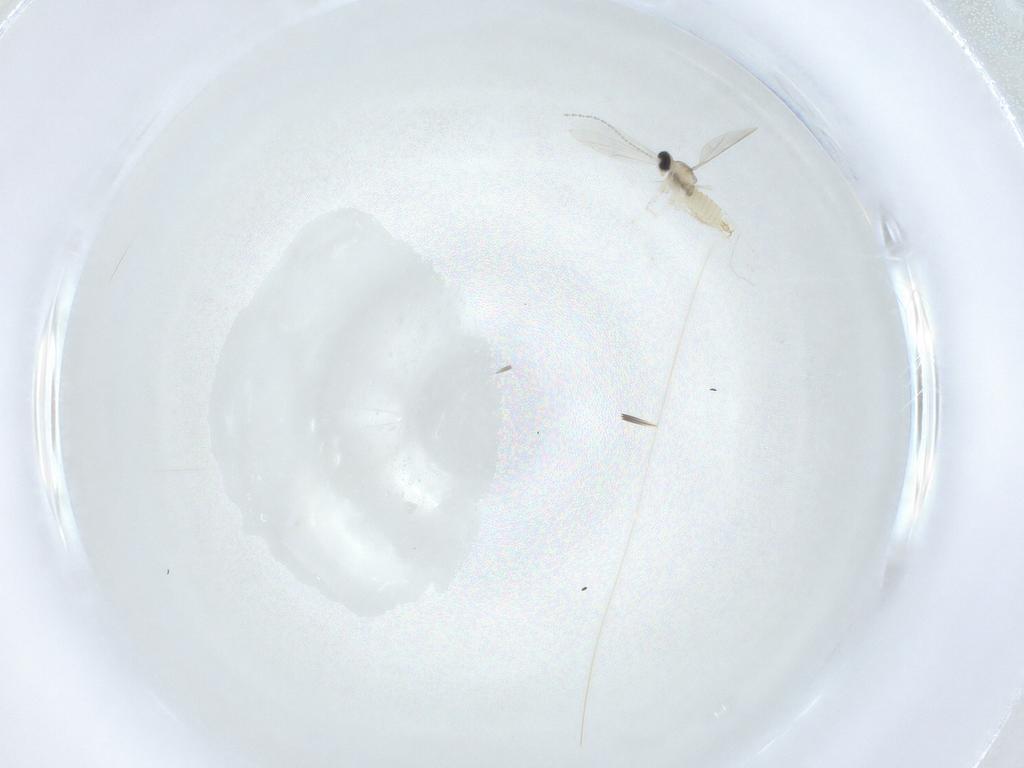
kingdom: Animalia
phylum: Arthropoda
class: Insecta
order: Diptera
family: Cecidomyiidae
